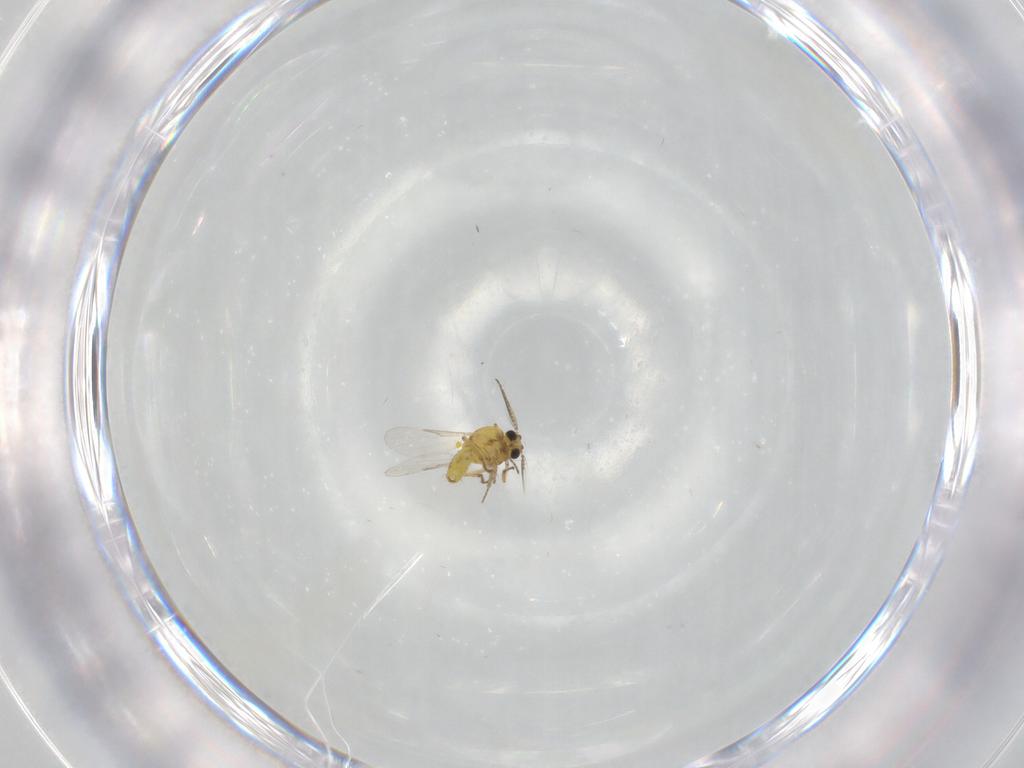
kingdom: Animalia
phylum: Arthropoda
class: Insecta
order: Diptera
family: Ceratopogonidae
